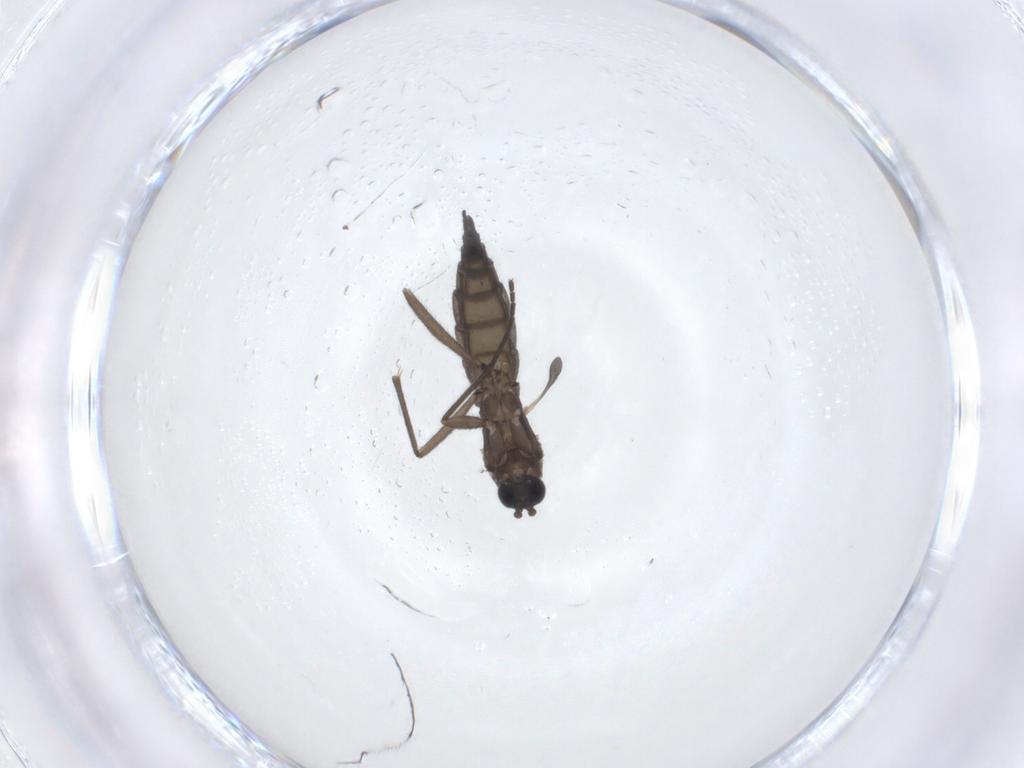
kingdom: Animalia
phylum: Arthropoda
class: Insecta
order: Diptera
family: Sciaridae
